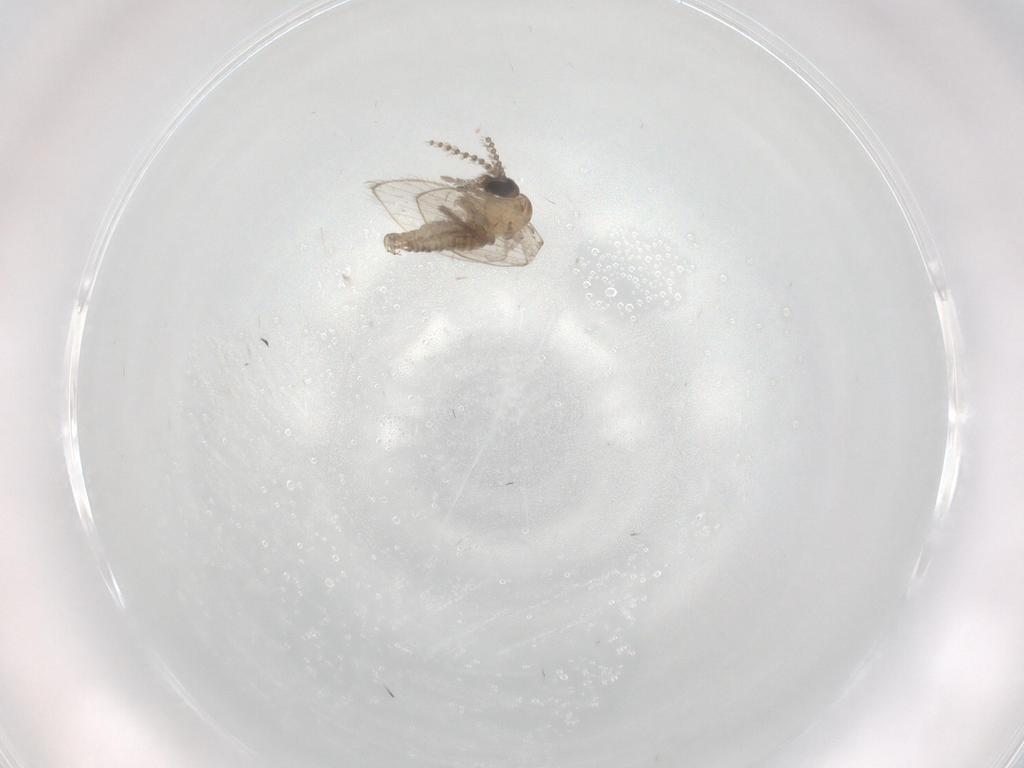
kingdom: Animalia
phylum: Arthropoda
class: Insecta
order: Diptera
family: Psychodidae
